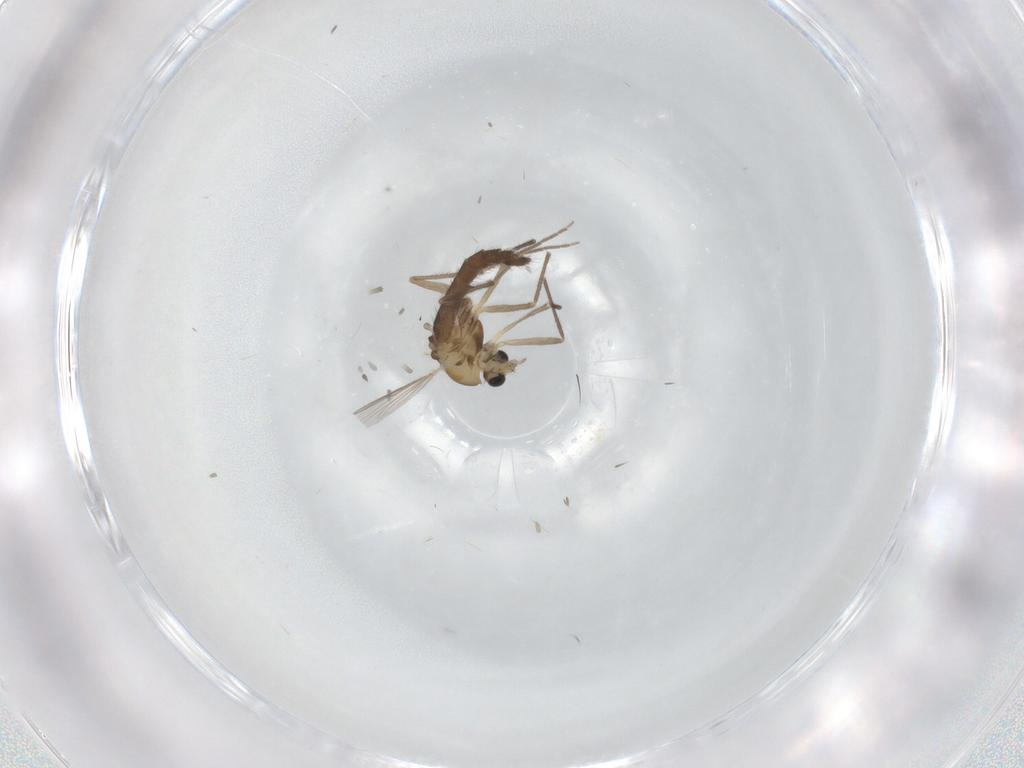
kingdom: Animalia
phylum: Arthropoda
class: Insecta
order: Diptera
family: Chironomidae
